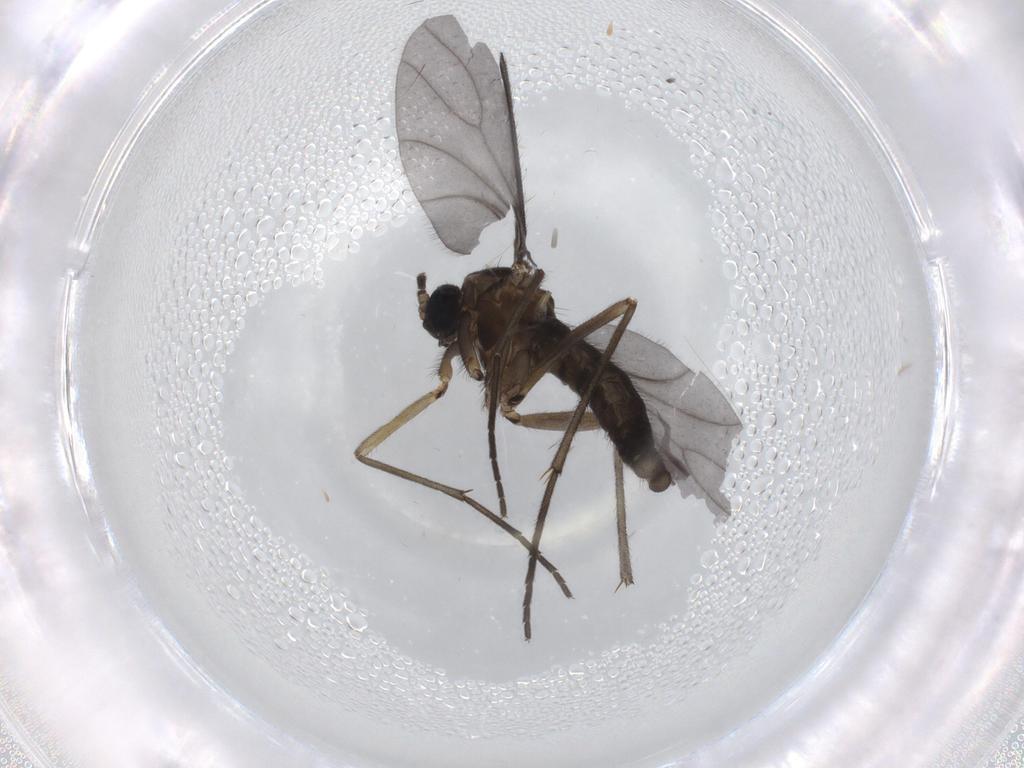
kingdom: Animalia
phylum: Arthropoda
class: Insecta
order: Diptera
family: Sciaridae
